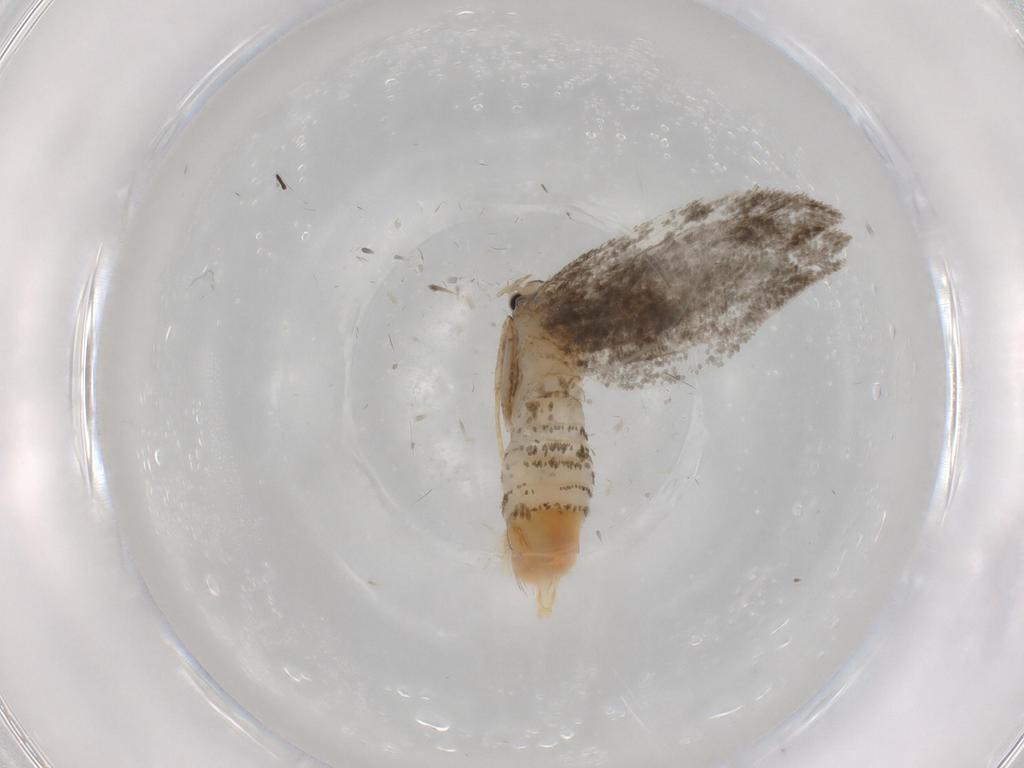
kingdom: Animalia
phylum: Arthropoda
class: Insecta
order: Lepidoptera
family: Psychidae
